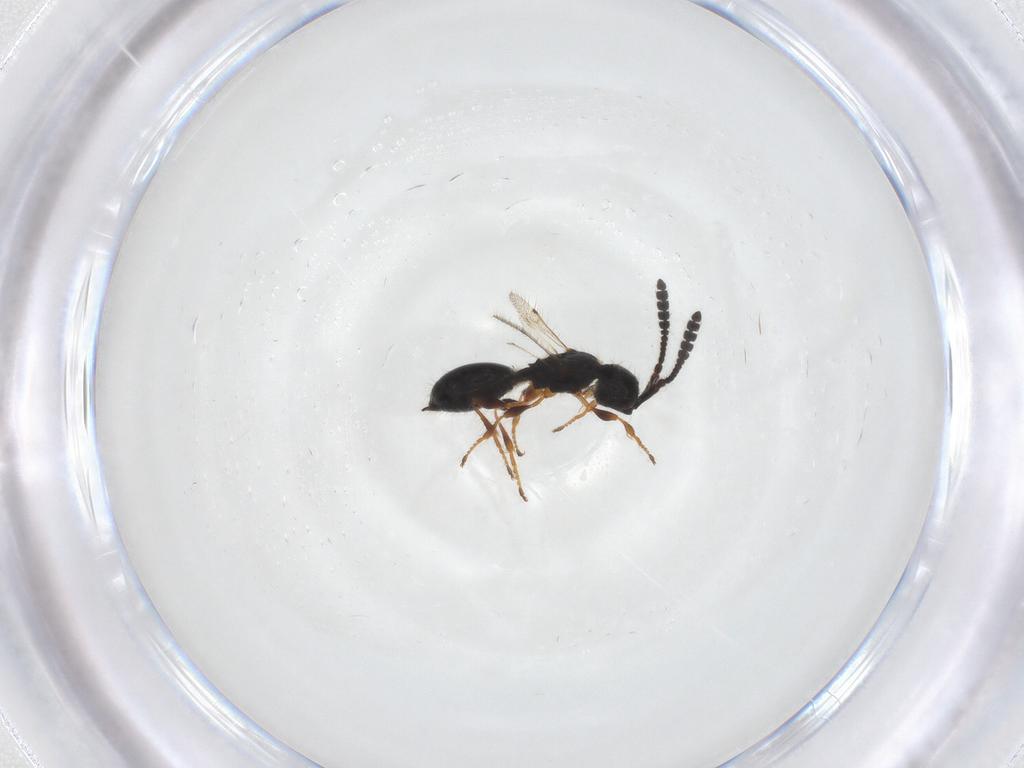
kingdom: Animalia
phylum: Arthropoda
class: Insecta
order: Hymenoptera
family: Diapriidae
